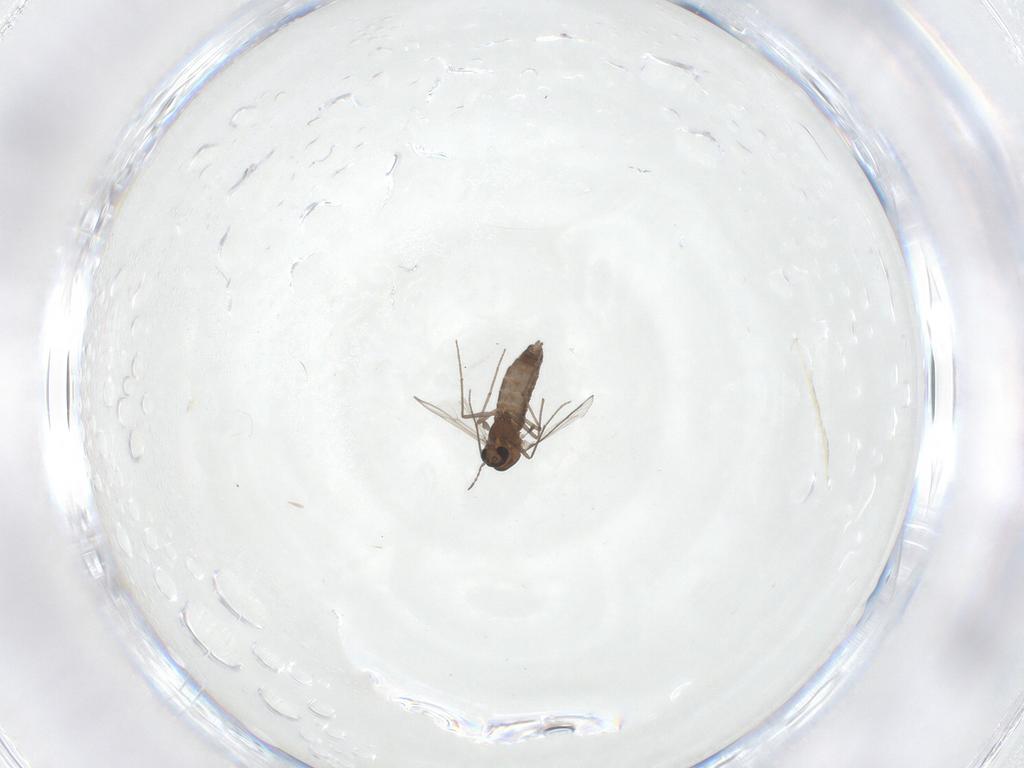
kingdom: Animalia
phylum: Arthropoda
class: Insecta
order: Diptera
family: Chironomidae
